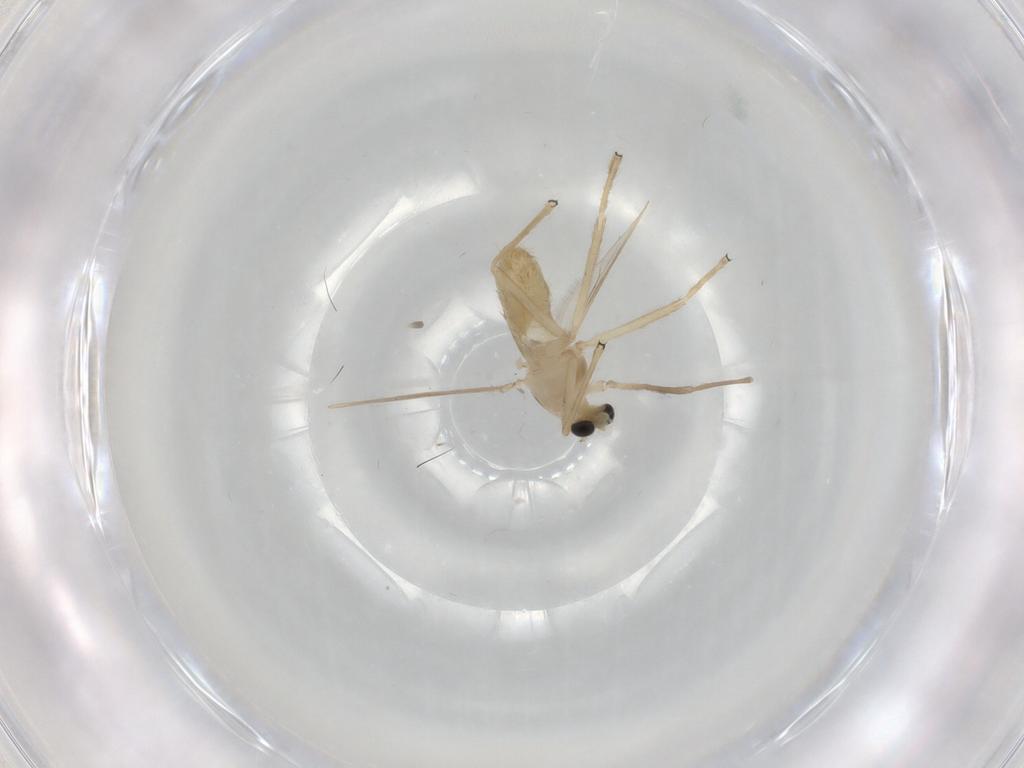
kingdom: Animalia
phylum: Arthropoda
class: Insecta
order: Diptera
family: Chironomidae
